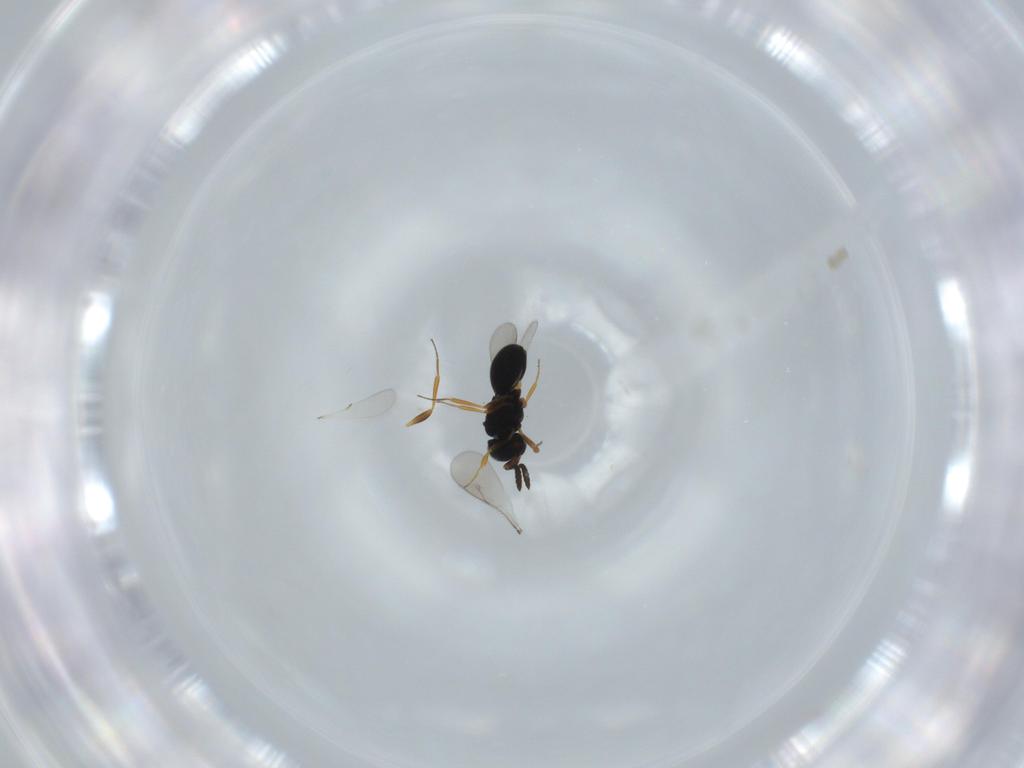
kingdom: Animalia
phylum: Arthropoda
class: Insecta
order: Hymenoptera
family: Scelionidae
